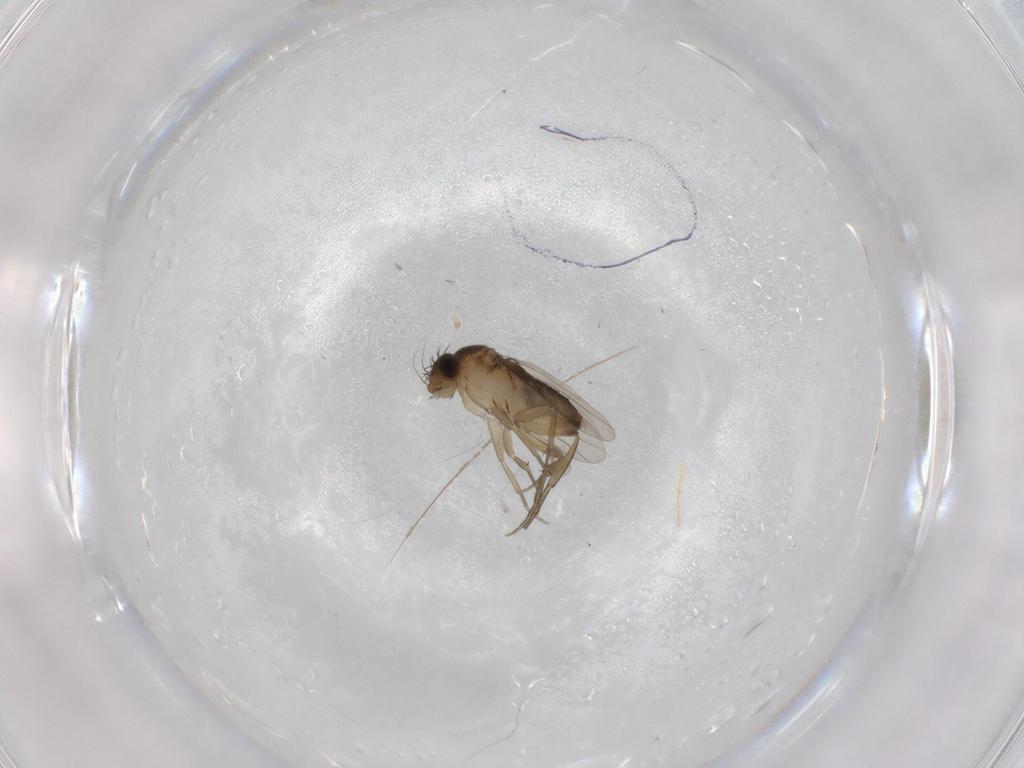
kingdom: Animalia
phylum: Arthropoda
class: Insecta
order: Diptera
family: Phoridae
